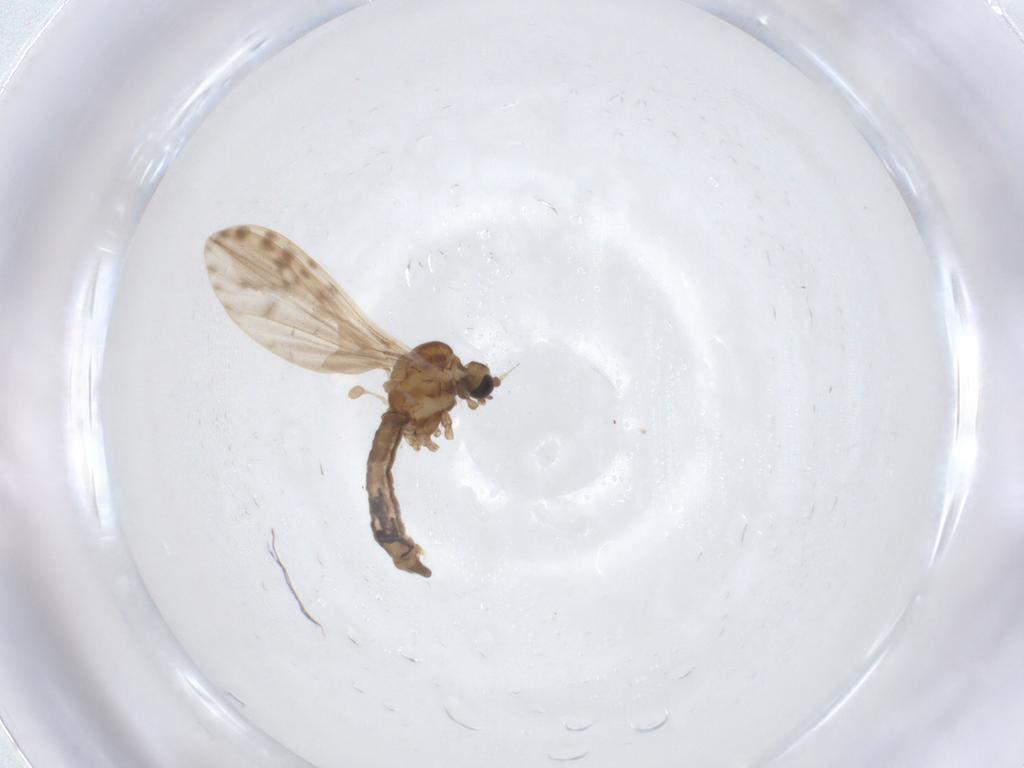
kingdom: Animalia
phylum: Arthropoda
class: Insecta
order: Diptera
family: Limoniidae
